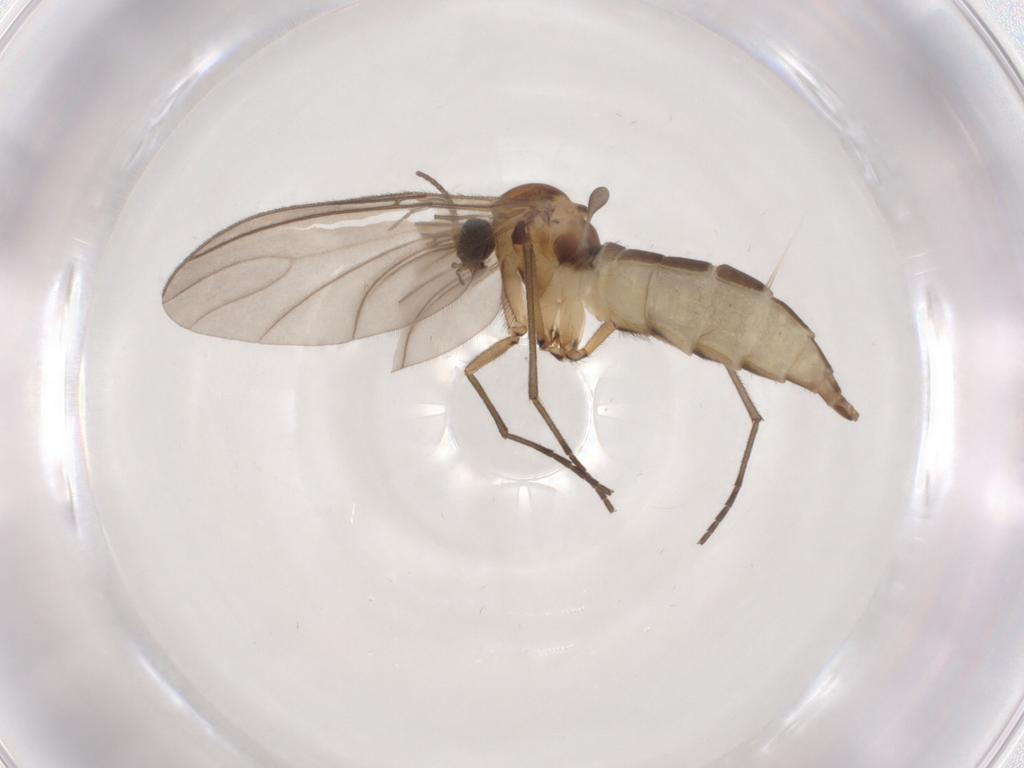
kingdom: Animalia
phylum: Arthropoda
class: Insecta
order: Diptera
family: Sciaridae
